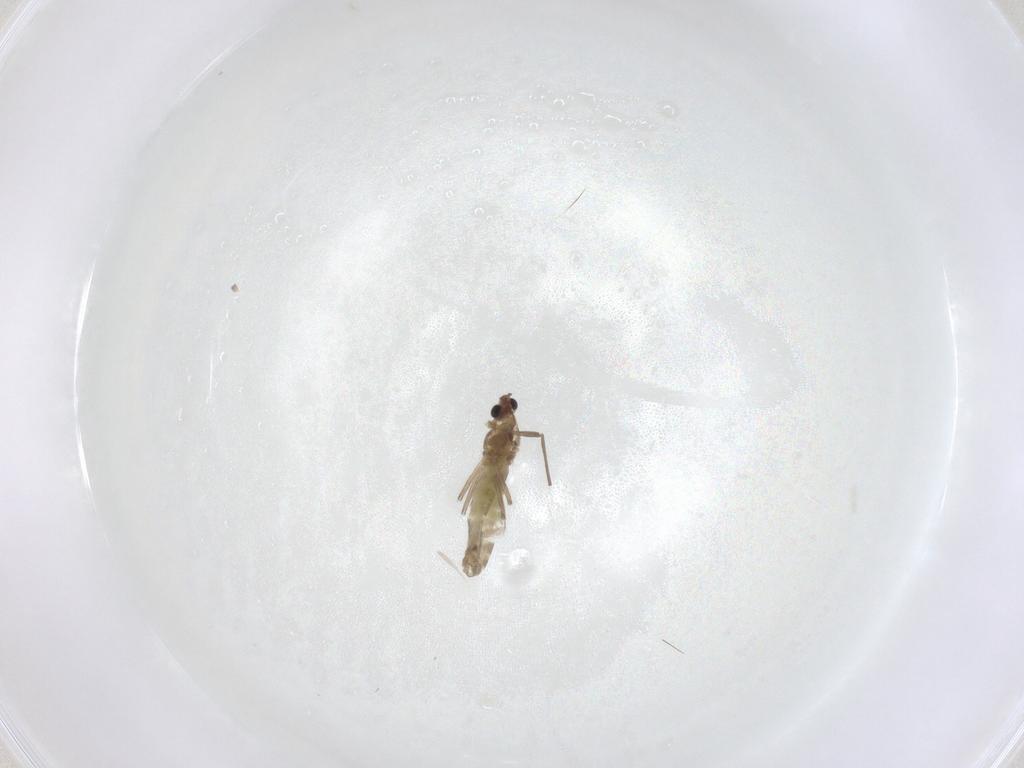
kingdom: Animalia
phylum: Arthropoda
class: Insecta
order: Diptera
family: Chironomidae
